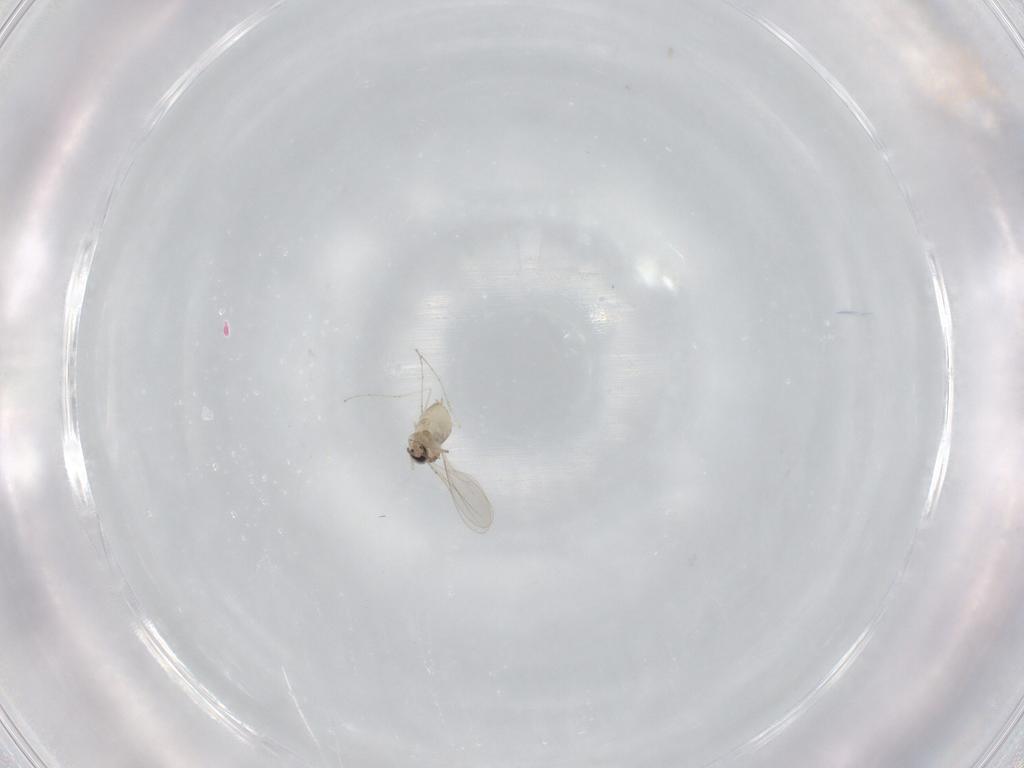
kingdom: Animalia
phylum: Arthropoda
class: Insecta
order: Diptera
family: Cecidomyiidae
